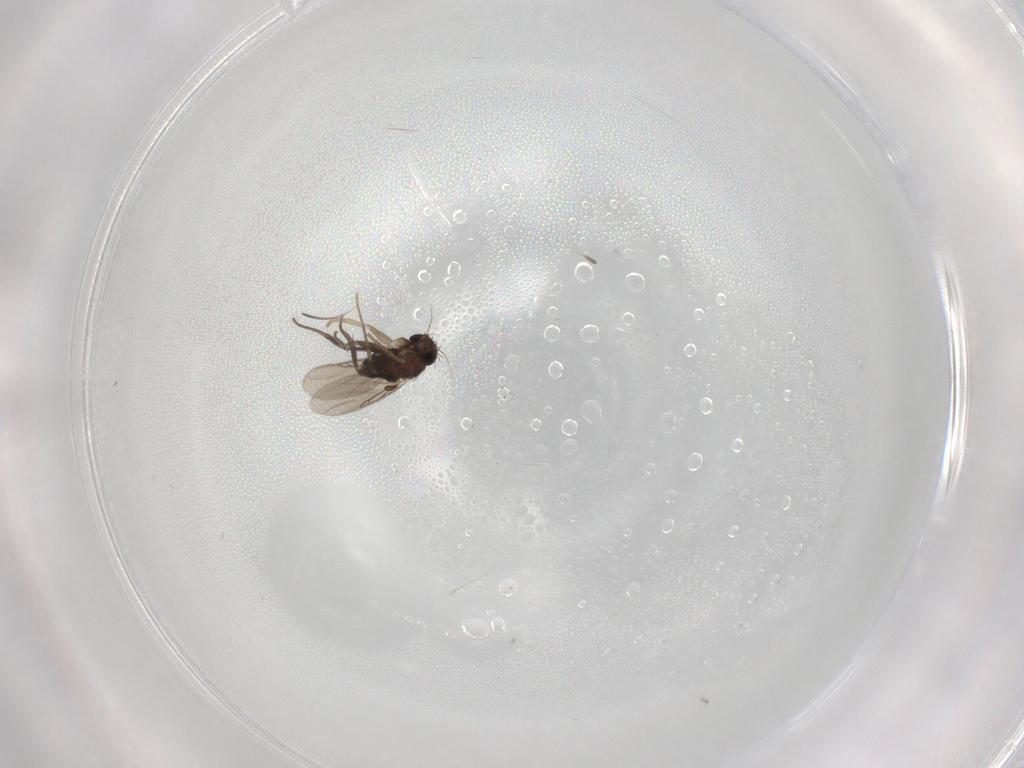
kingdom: Animalia
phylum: Arthropoda
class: Insecta
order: Diptera
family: Phoridae
